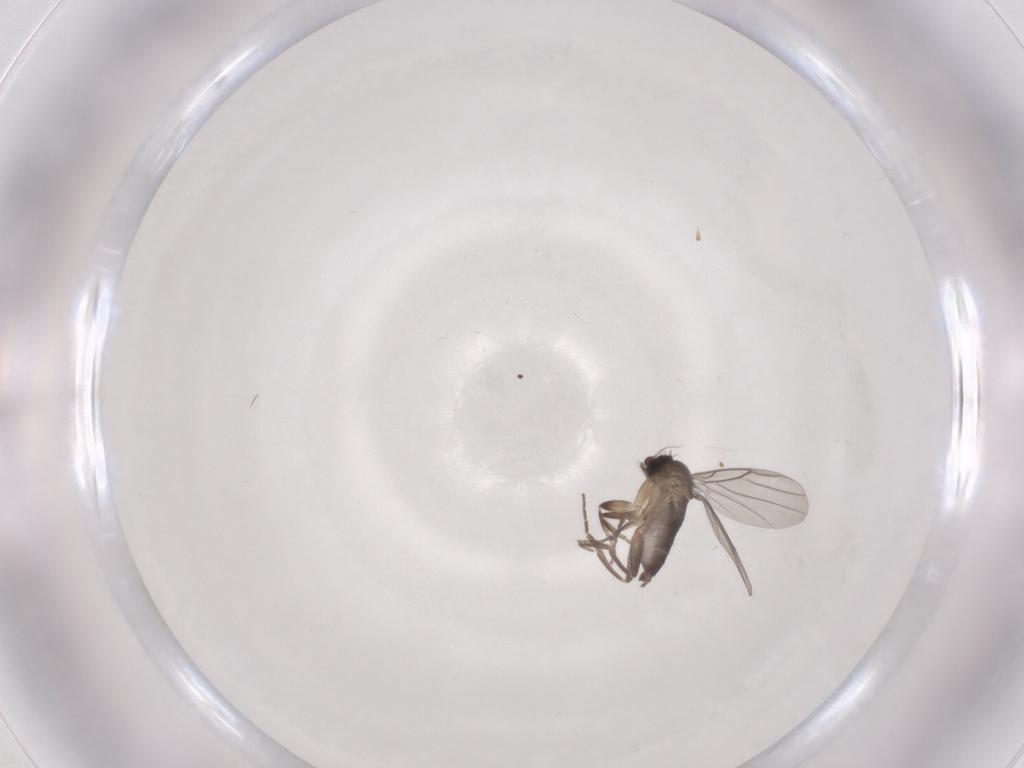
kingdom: Animalia
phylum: Arthropoda
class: Insecta
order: Diptera
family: Phoridae
